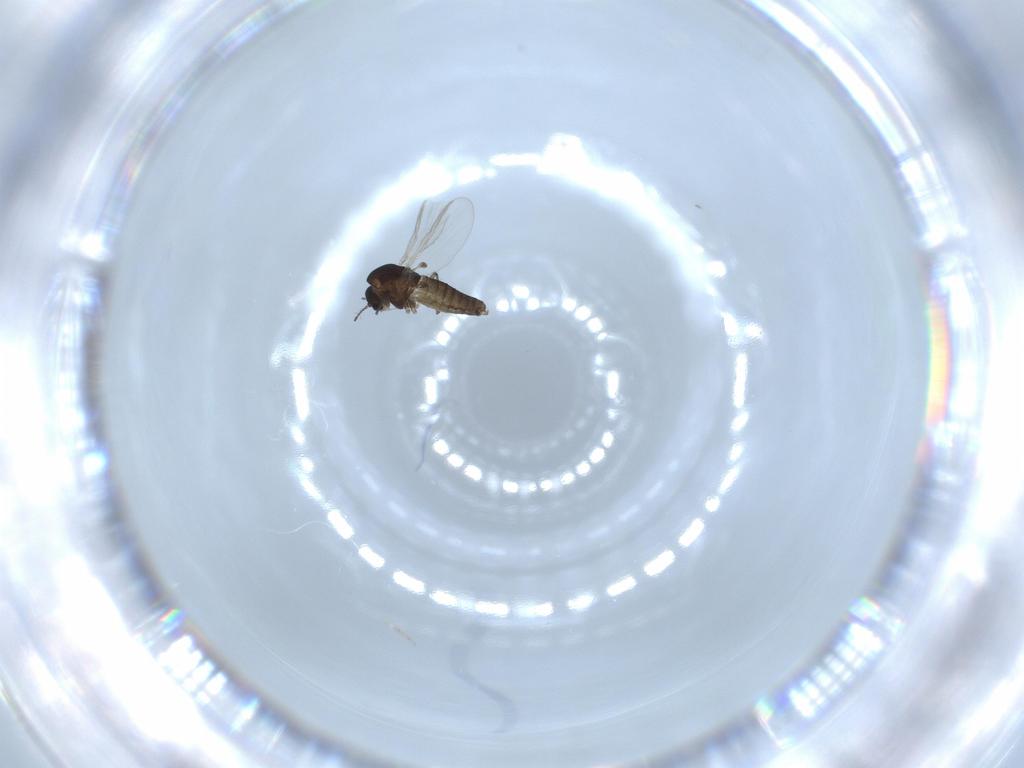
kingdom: Animalia
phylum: Arthropoda
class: Insecta
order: Diptera
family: Chironomidae
